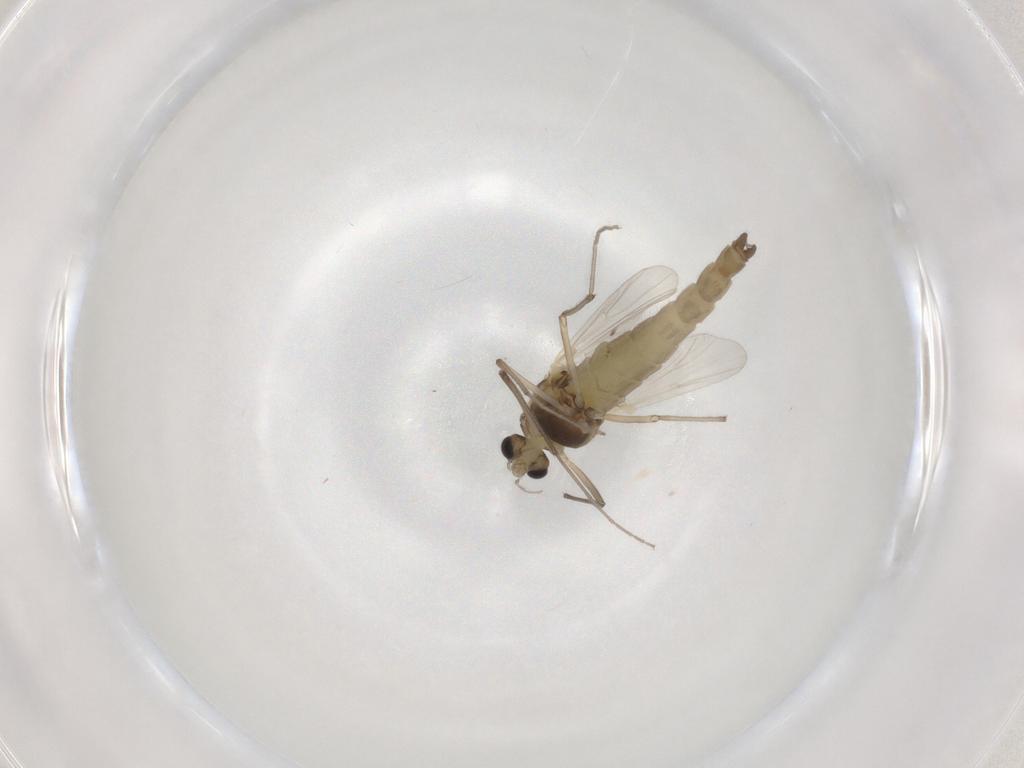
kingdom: Animalia
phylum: Arthropoda
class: Insecta
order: Diptera
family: Chironomidae
